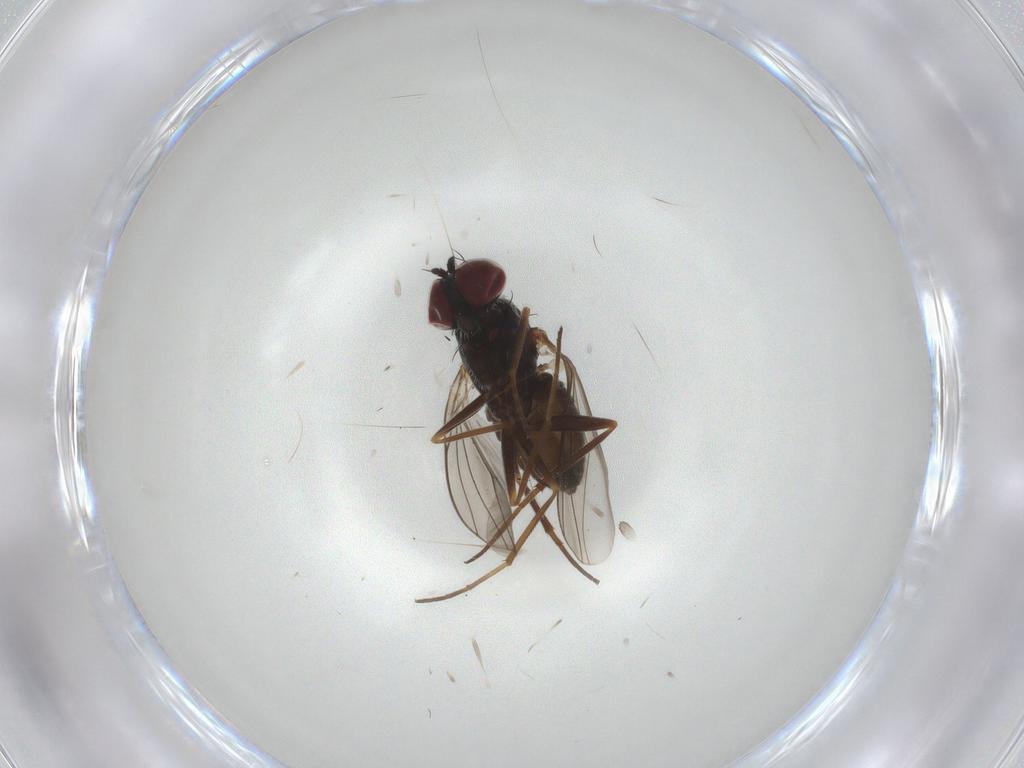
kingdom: Animalia
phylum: Arthropoda
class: Insecta
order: Diptera
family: Dolichopodidae
